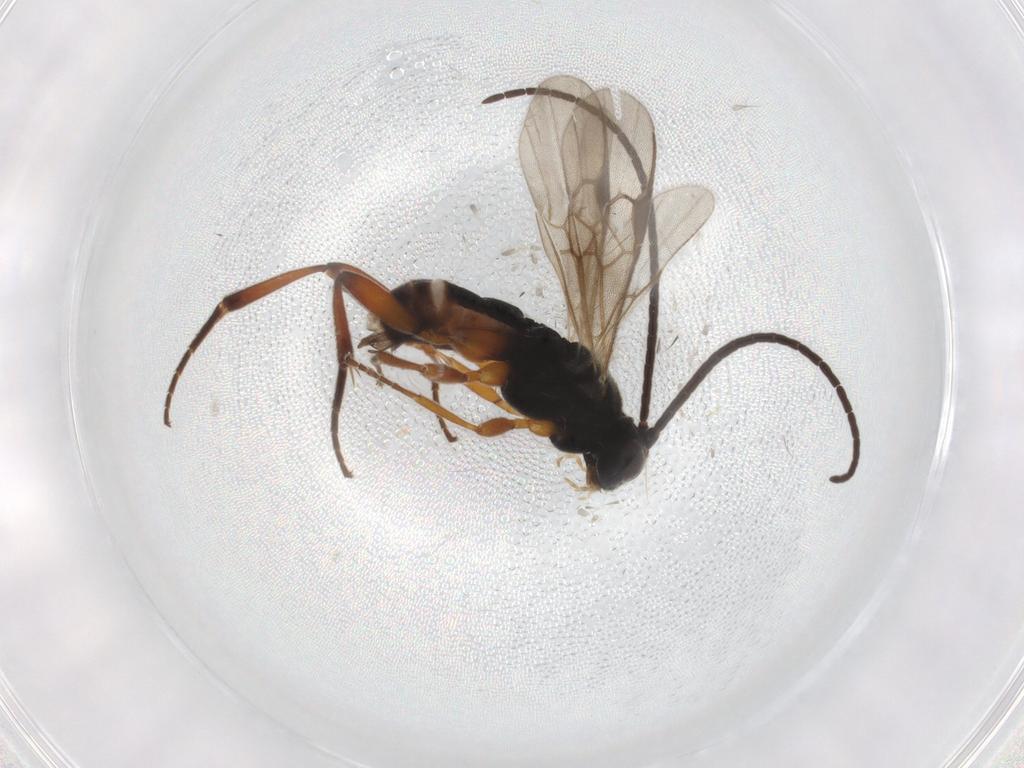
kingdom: Animalia
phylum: Arthropoda
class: Insecta
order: Hymenoptera
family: Braconidae
